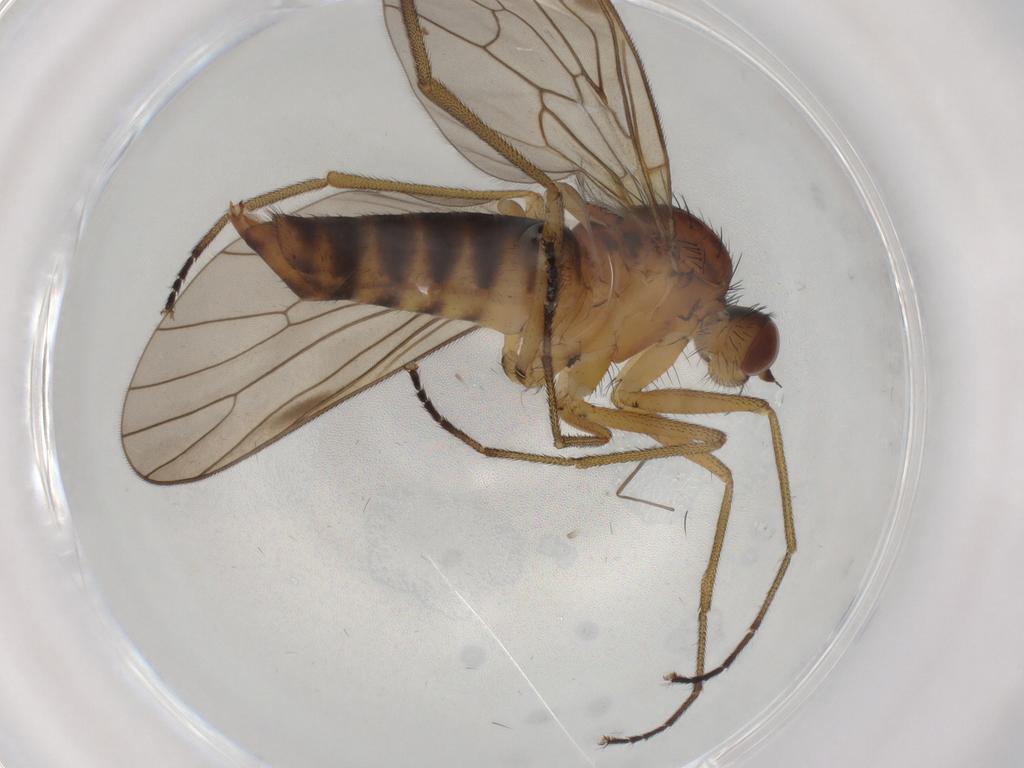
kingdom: Animalia
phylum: Arthropoda
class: Insecta
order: Diptera
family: Brachystomatidae
